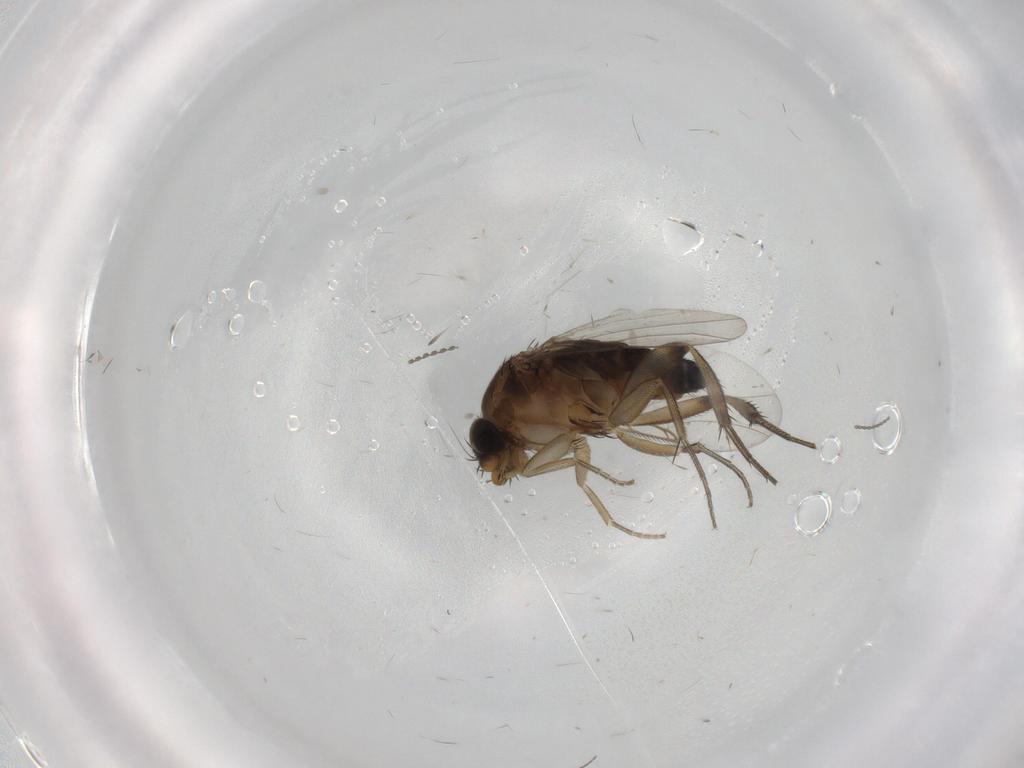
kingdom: Animalia
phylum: Arthropoda
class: Insecta
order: Diptera
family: Phoridae
